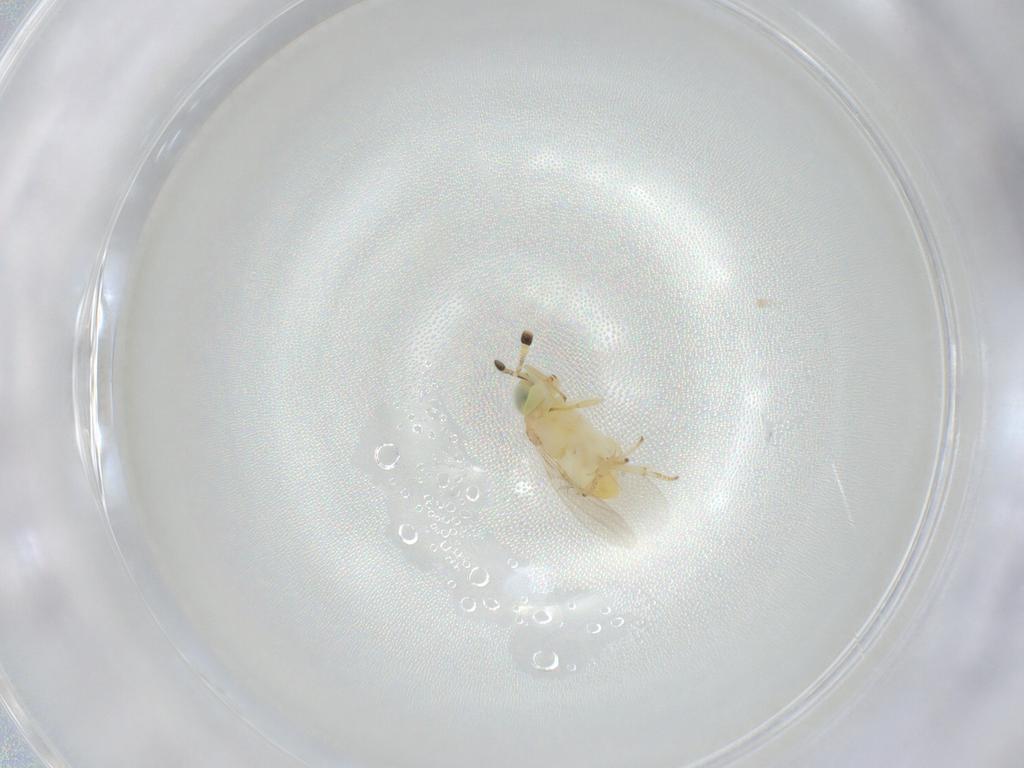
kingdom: Animalia
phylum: Arthropoda
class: Insecta
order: Hymenoptera
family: Encyrtidae
